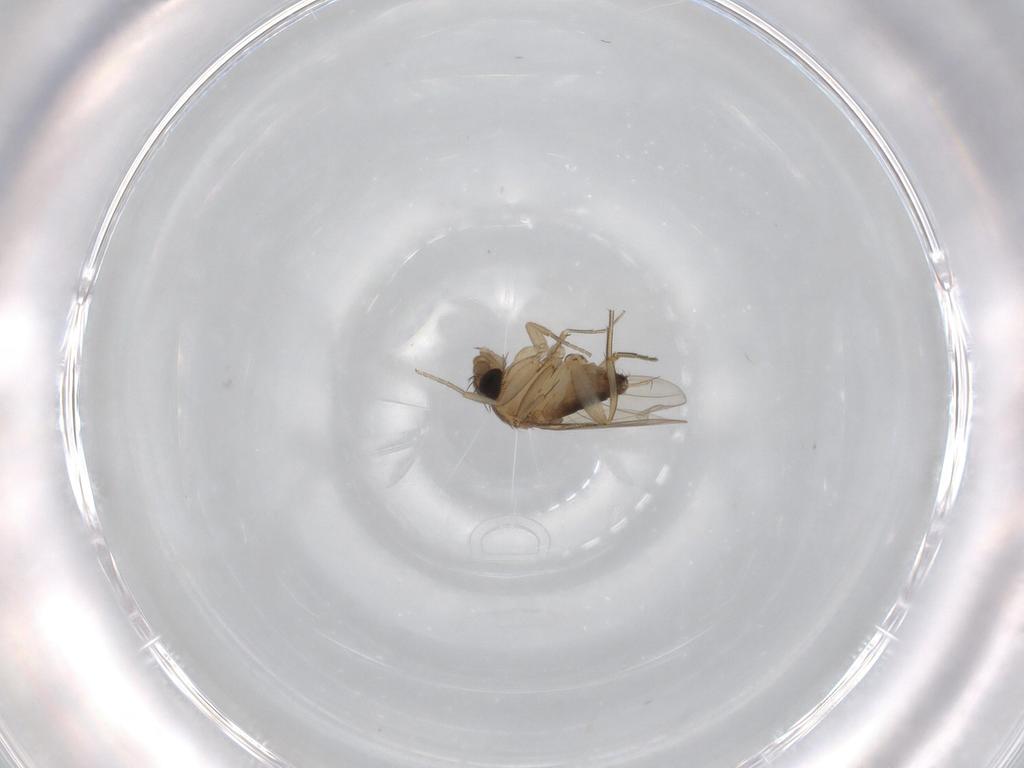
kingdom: Animalia
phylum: Arthropoda
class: Insecta
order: Diptera
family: Phoridae
